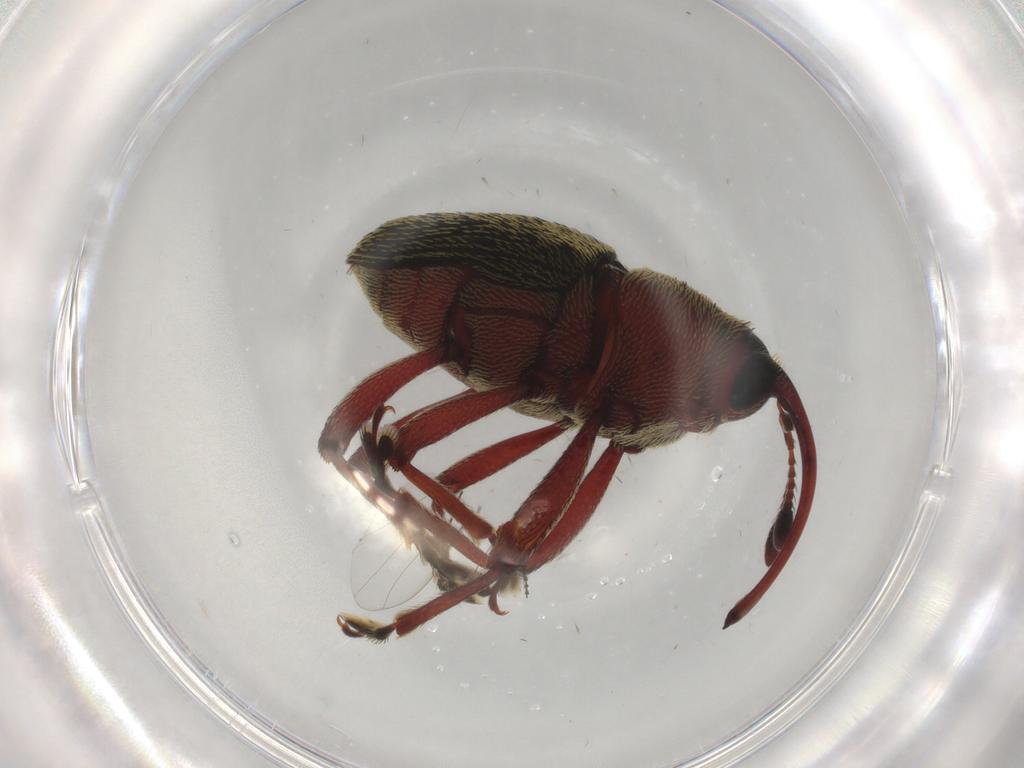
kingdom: Animalia
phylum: Arthropoda
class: Insecta
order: Coleoptera
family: Curculionidae
